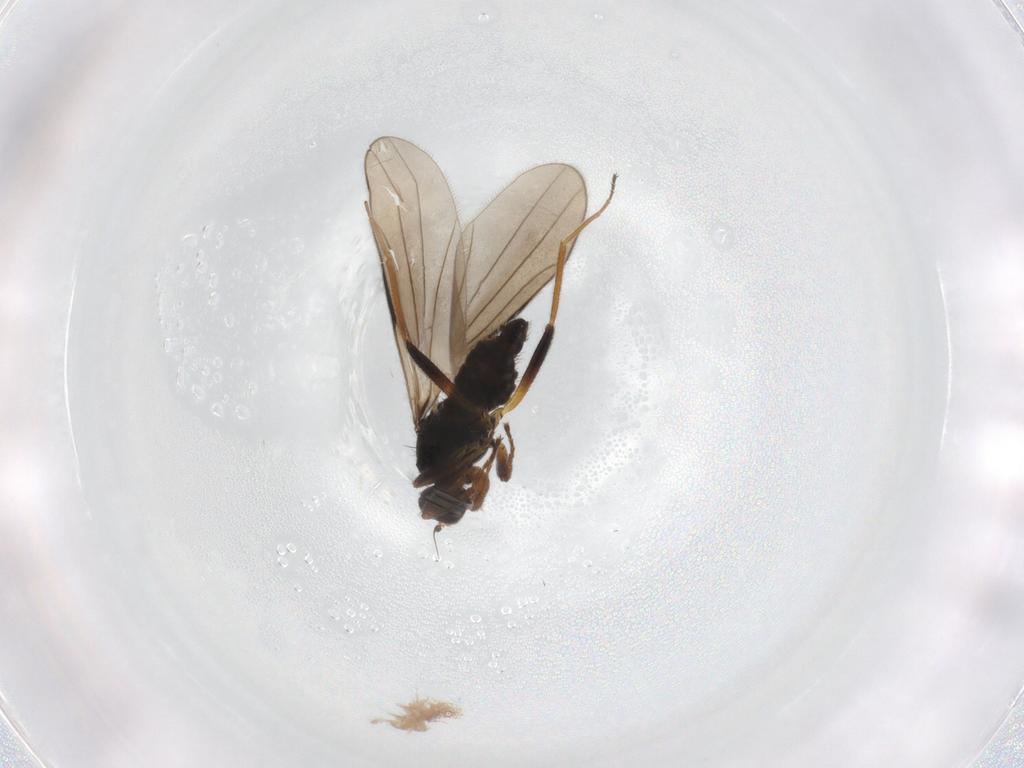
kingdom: Animalia
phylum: Arthropoda
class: Insecta
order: Diptera
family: Hybotidae
